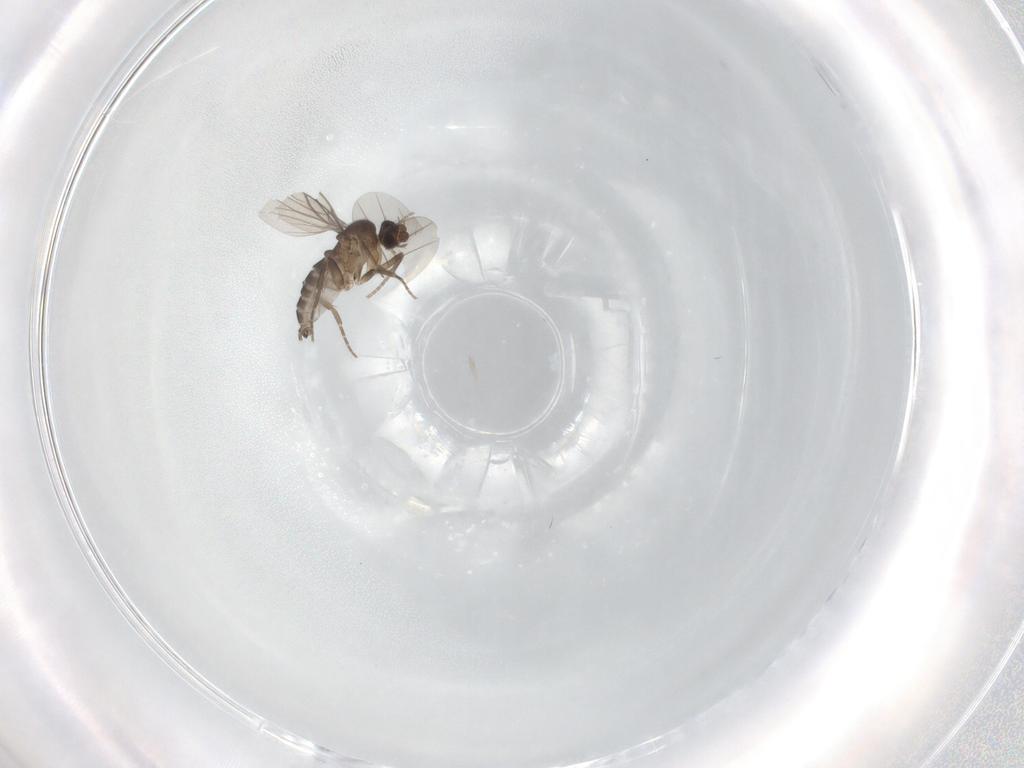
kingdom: Animalia
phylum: Arthropoda
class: Insecta
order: Diptera
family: Phoridae
